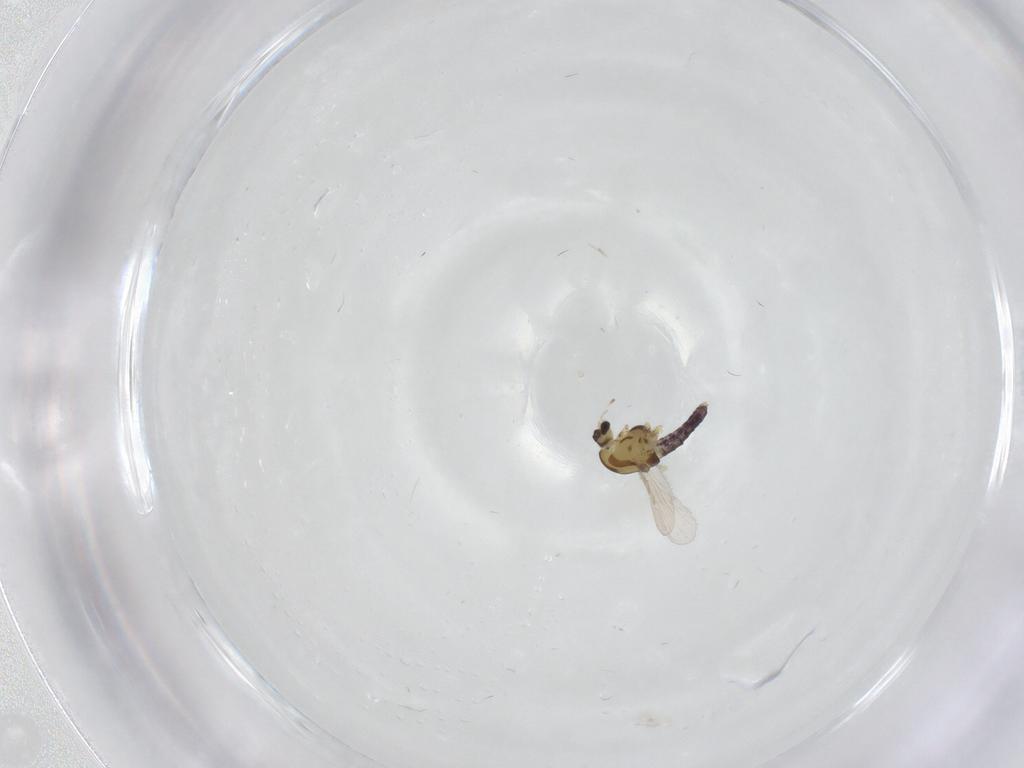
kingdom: Animalia
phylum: Arthropoda
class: Insecta
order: Diptera
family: Chironomidae
